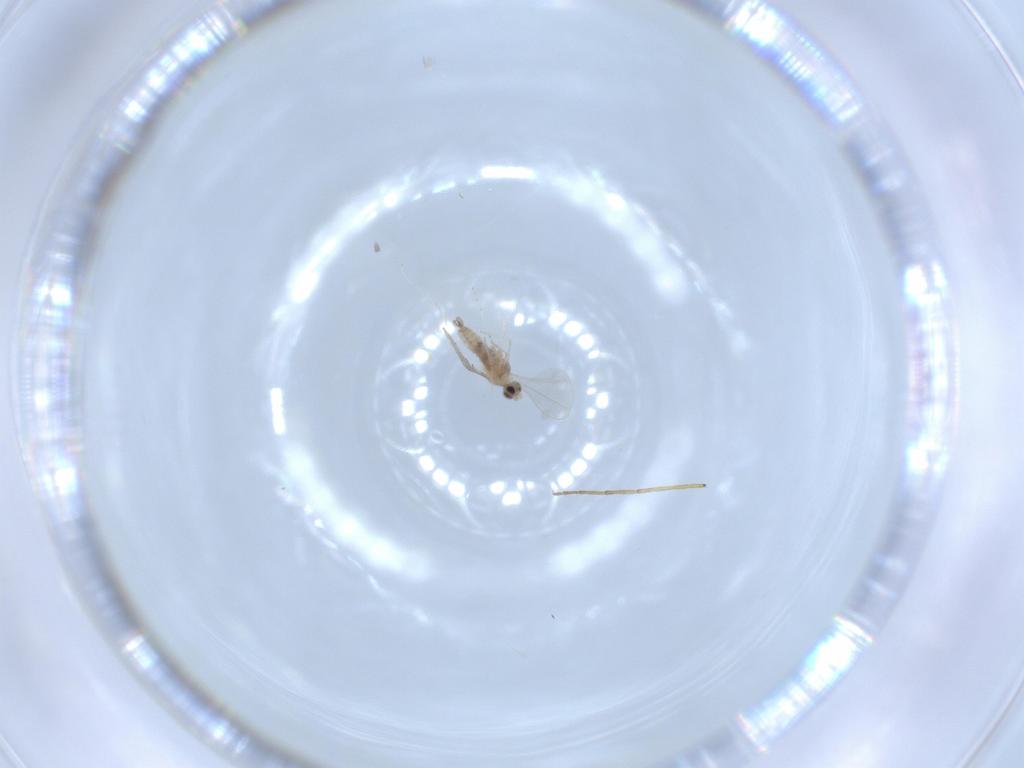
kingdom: Animalia
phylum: Arthropoda
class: Insecta
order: Diptera
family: Cecidomyiidae
